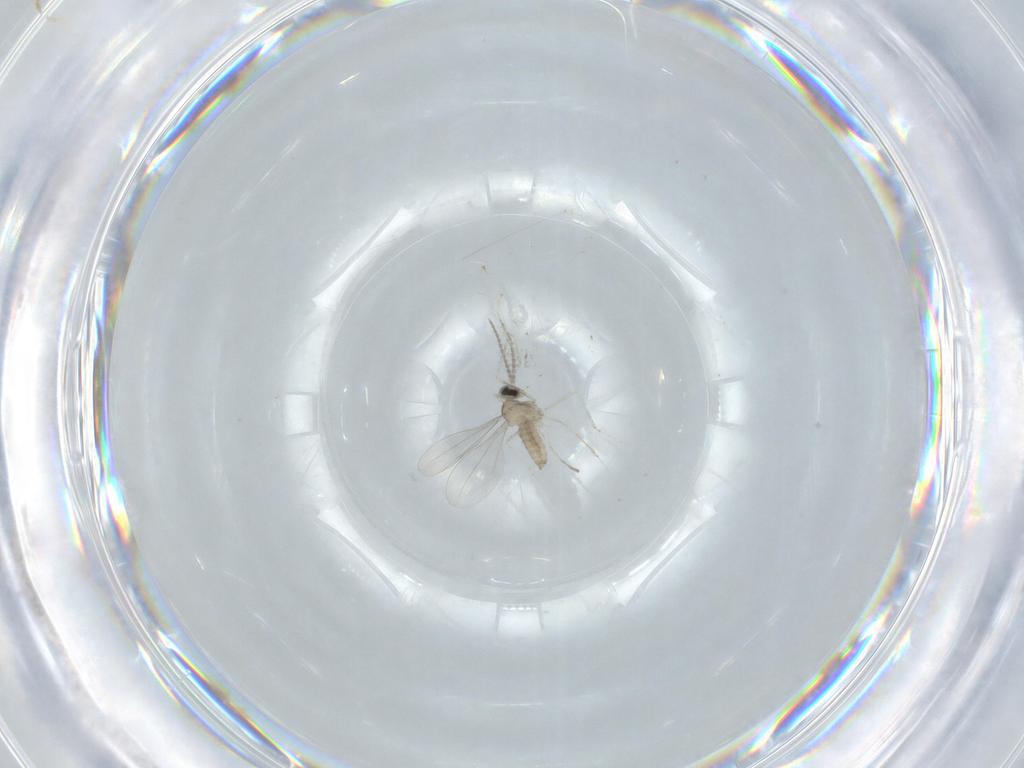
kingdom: Animalia
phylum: Arthropoda
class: Insecta
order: Diptera
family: Cecidomyiidae
